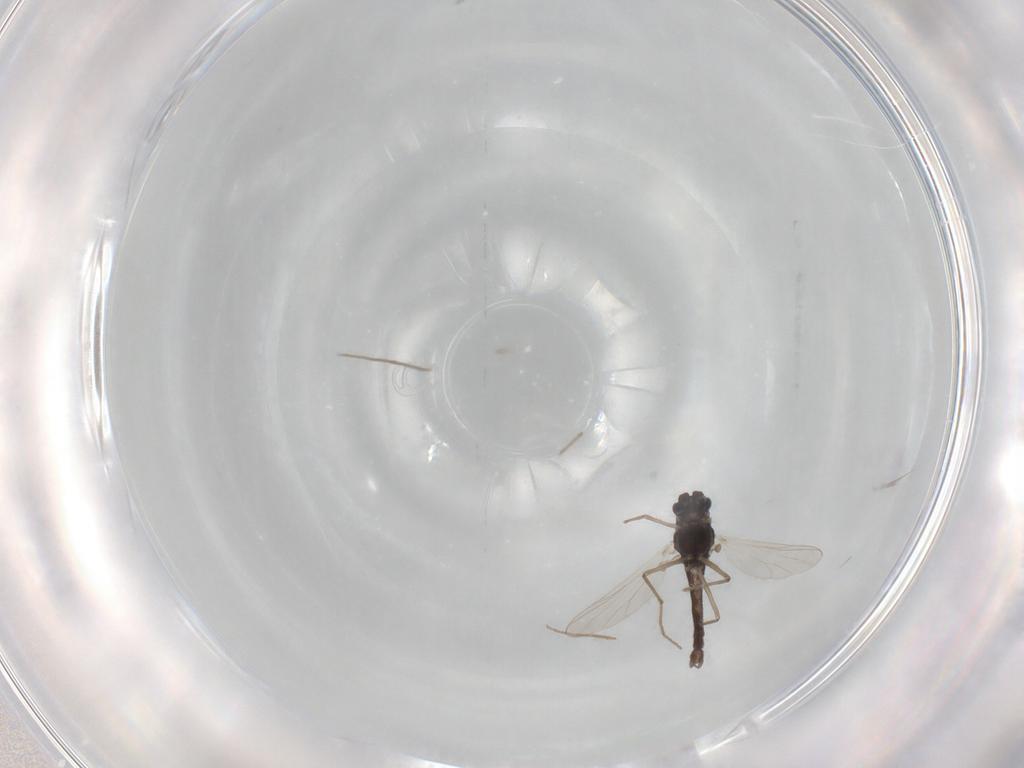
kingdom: Animalia
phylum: Arthropoda
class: Insecta
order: Diptera
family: Chironomidae
